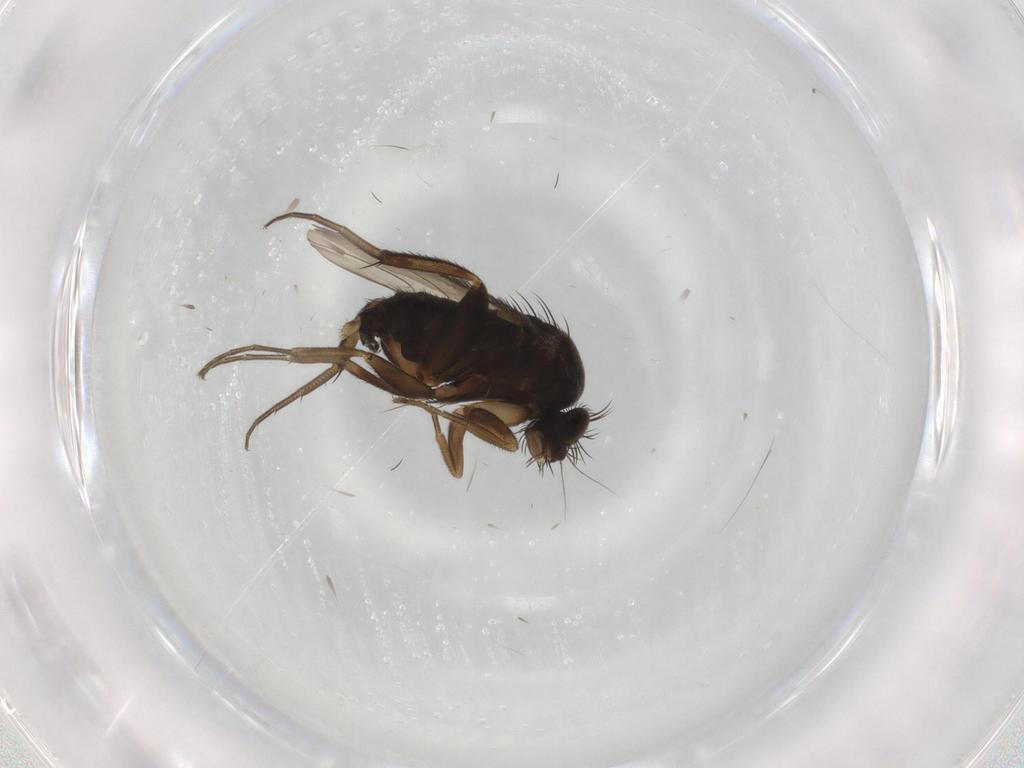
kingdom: Animalia
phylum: Arthropoda
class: Insecta
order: Diptera
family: Phoridae
